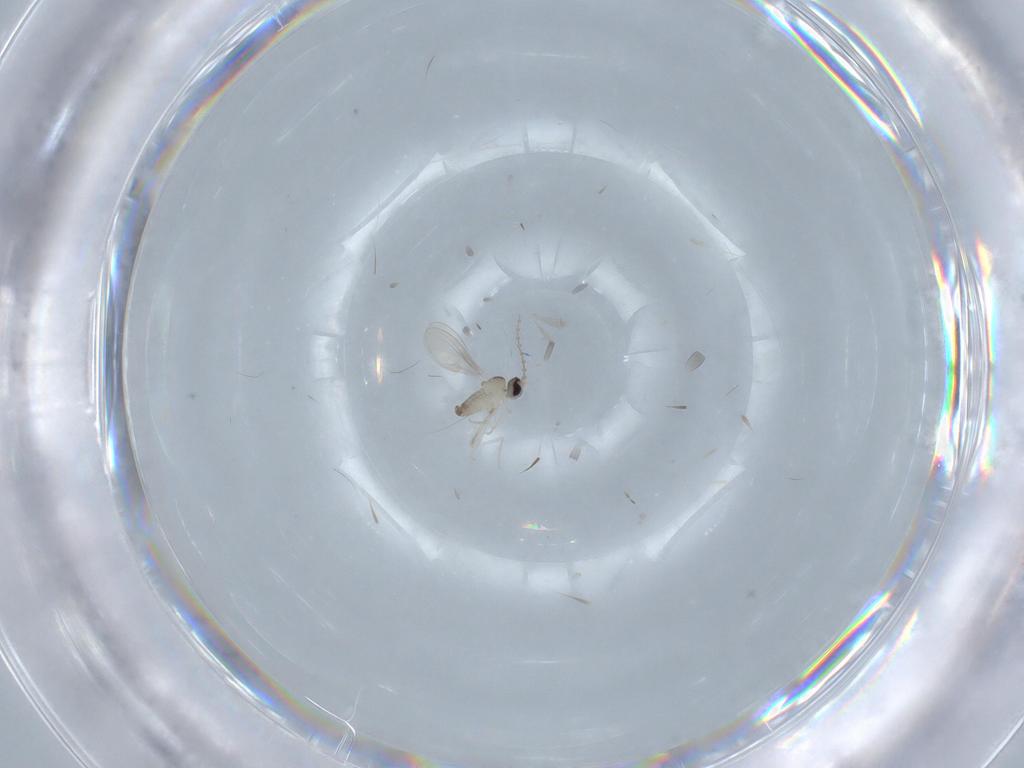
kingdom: Animalia
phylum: Arthropoda
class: Insecta
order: Diptera
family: Cecidomyiidae
